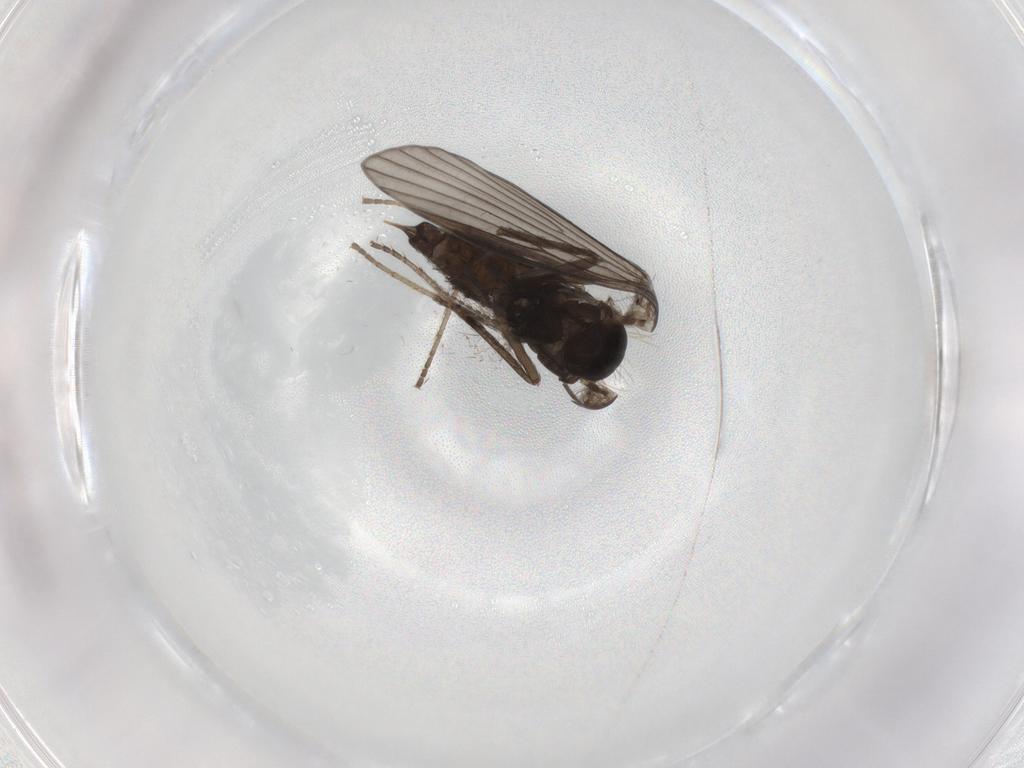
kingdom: Animalia
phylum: Arthropoda
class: Insecta
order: Diptera
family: Psychodidae
